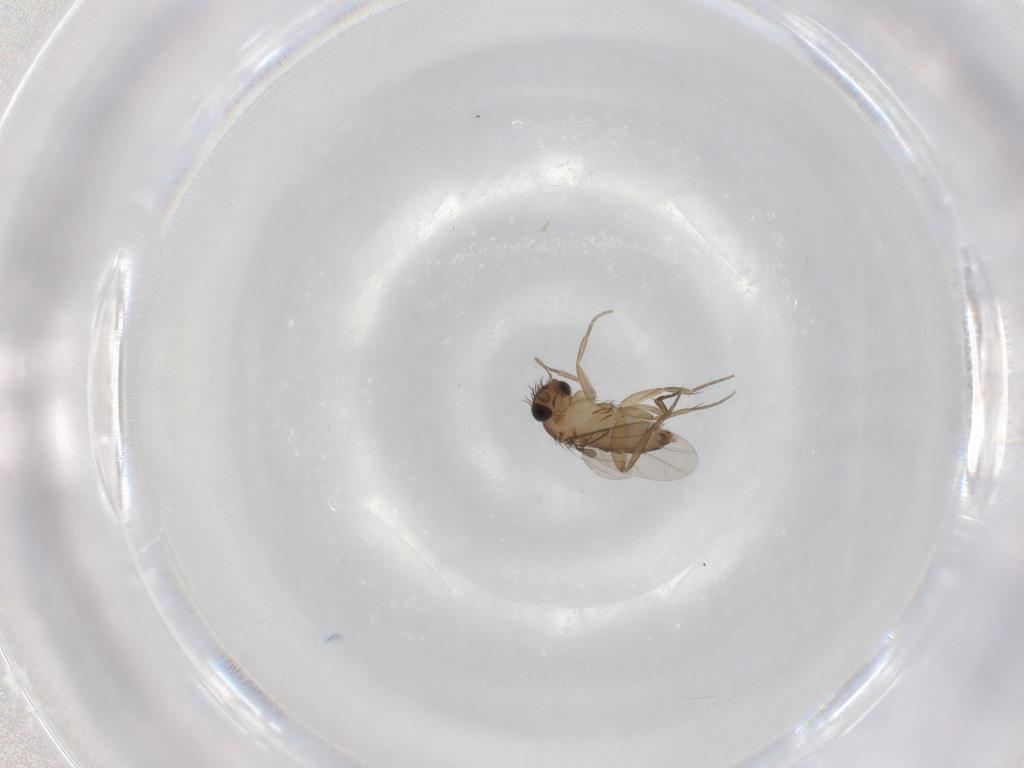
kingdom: Animalia
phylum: Arthropoda
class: Insecta
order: Diptera
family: Phoridae
